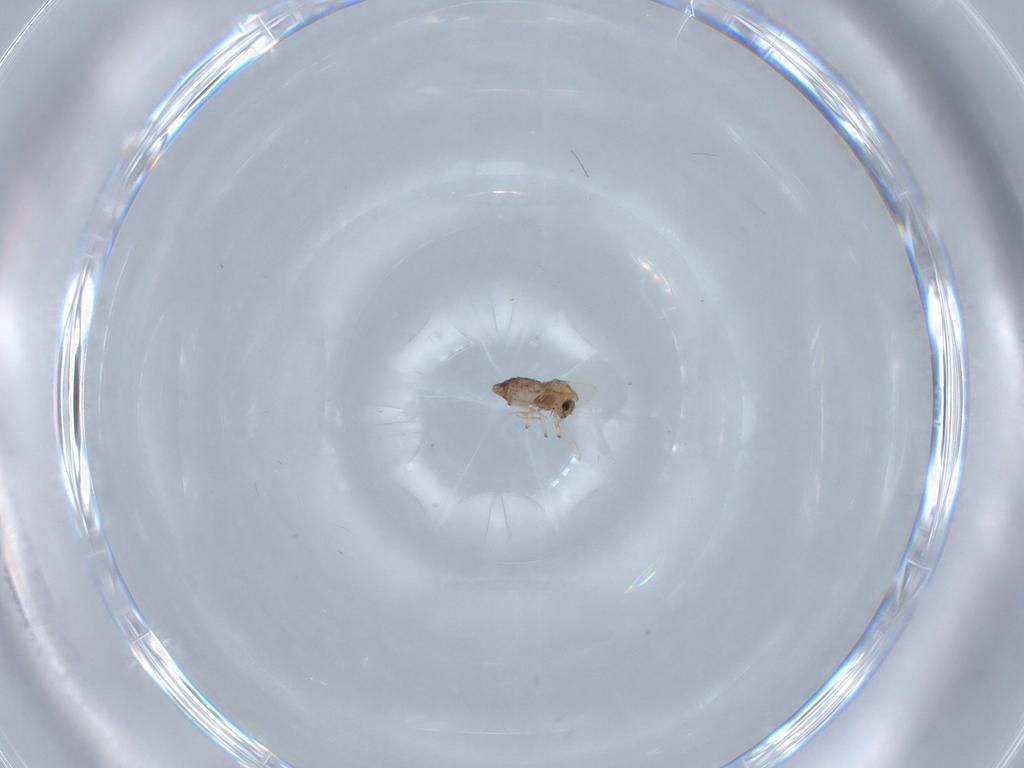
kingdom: Animalia
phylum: Arthropoda
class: Insecta
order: Diptera
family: Chironomidae
